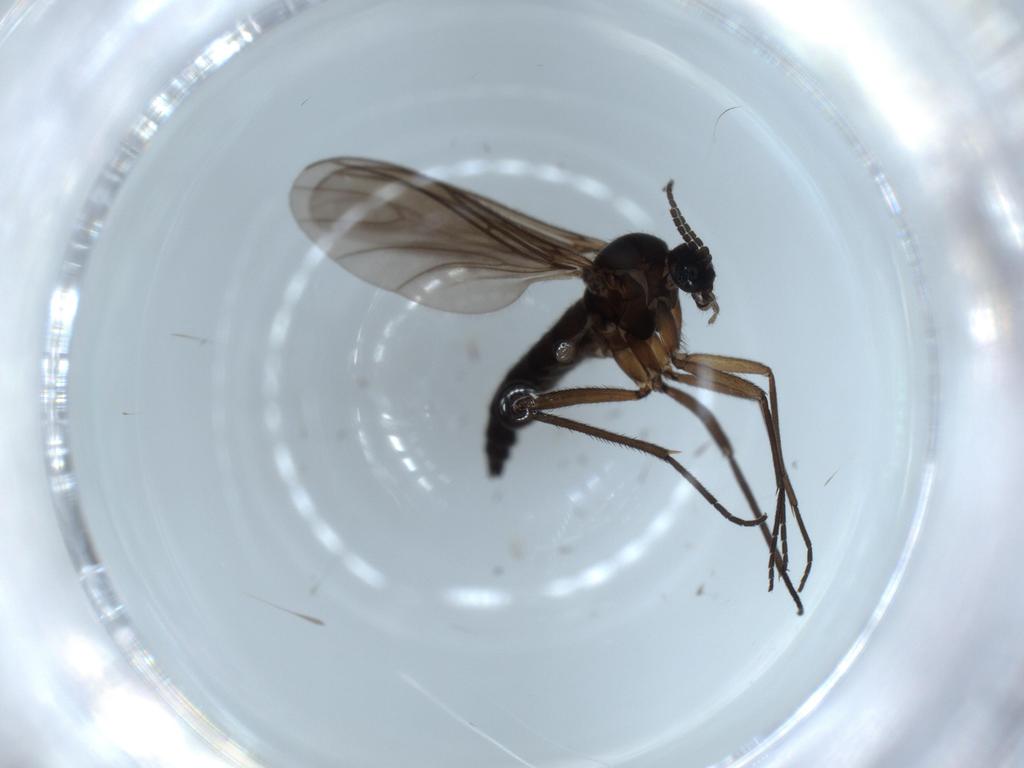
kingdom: Animalia
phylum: Arthropoda
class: Insecta
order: Diptera
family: Sciaridae
